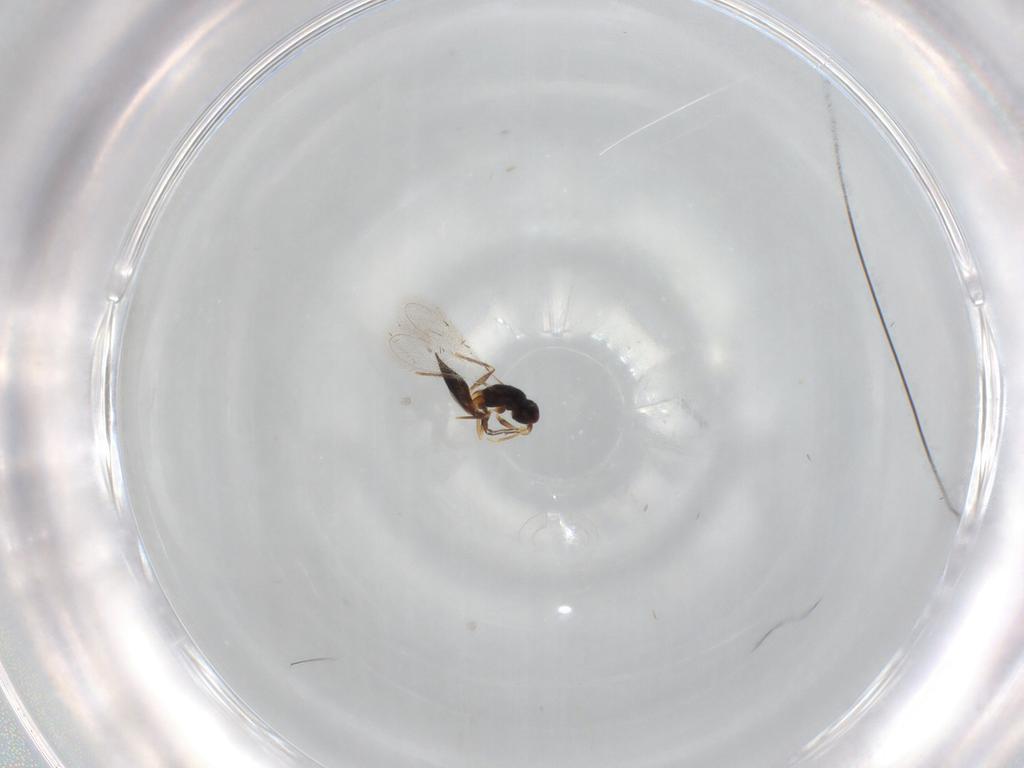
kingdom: Animalia
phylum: Arthropoda
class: Insecta
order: Hymenoptera
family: Mymaridae
